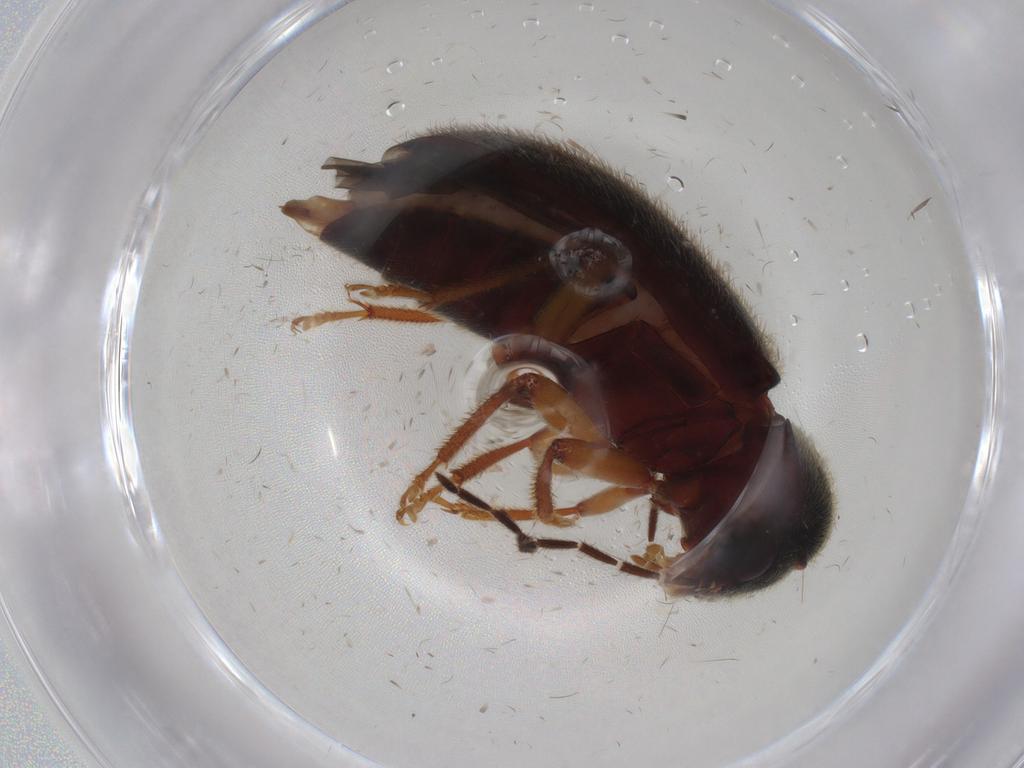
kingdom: Animalia
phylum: Arthropoda
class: Insecta
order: Coleoptera
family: Ptilodactylidae
